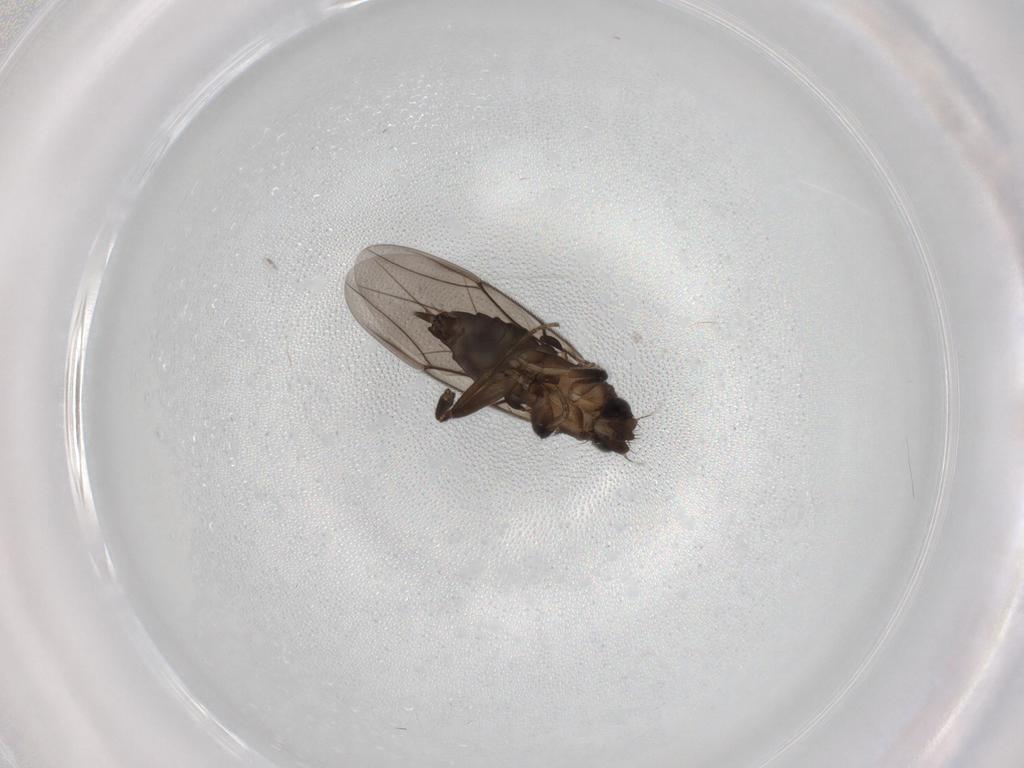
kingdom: Animalia
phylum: Arthropoda
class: Insecta
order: Diptera
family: Phoridae
